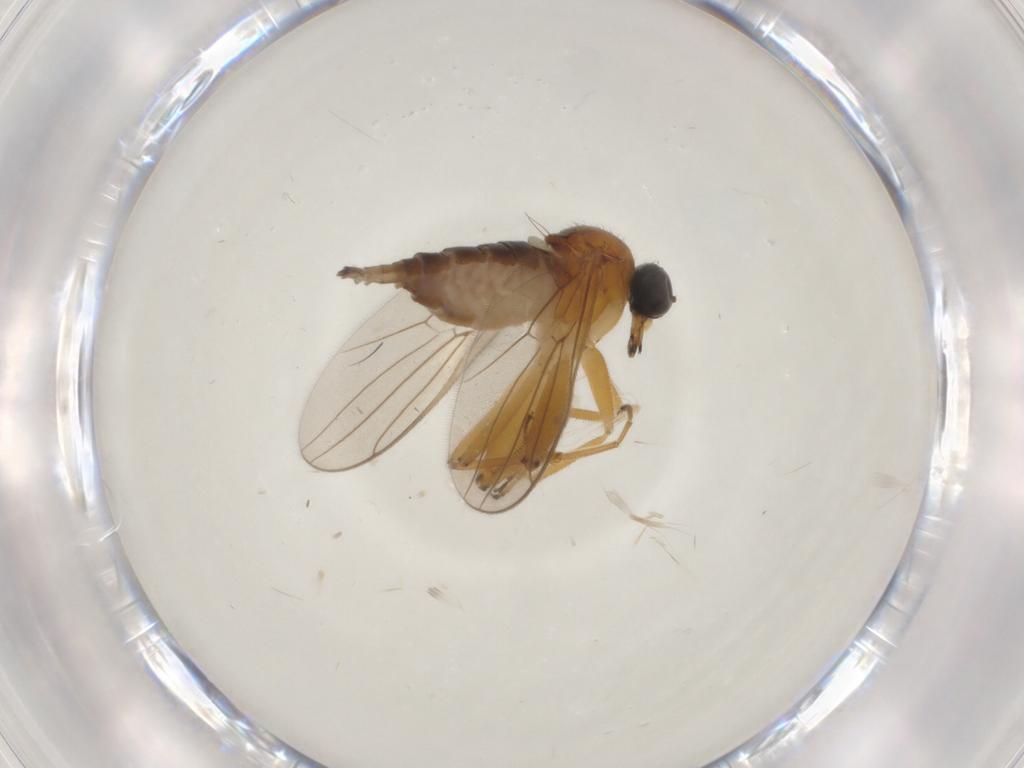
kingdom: Animalia
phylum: Arthropoda
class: Insecta
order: Diptera
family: Hybotidae
